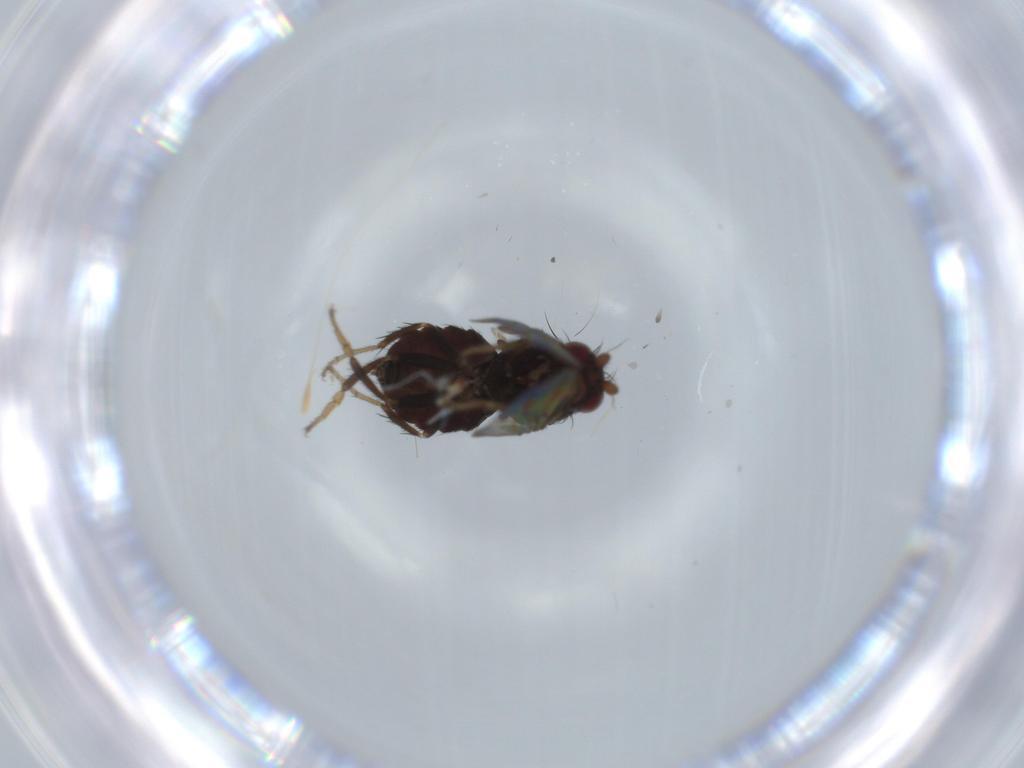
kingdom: Animalia
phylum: Arthropoda
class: Insecta
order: Diptera
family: Sphaeroceridae
